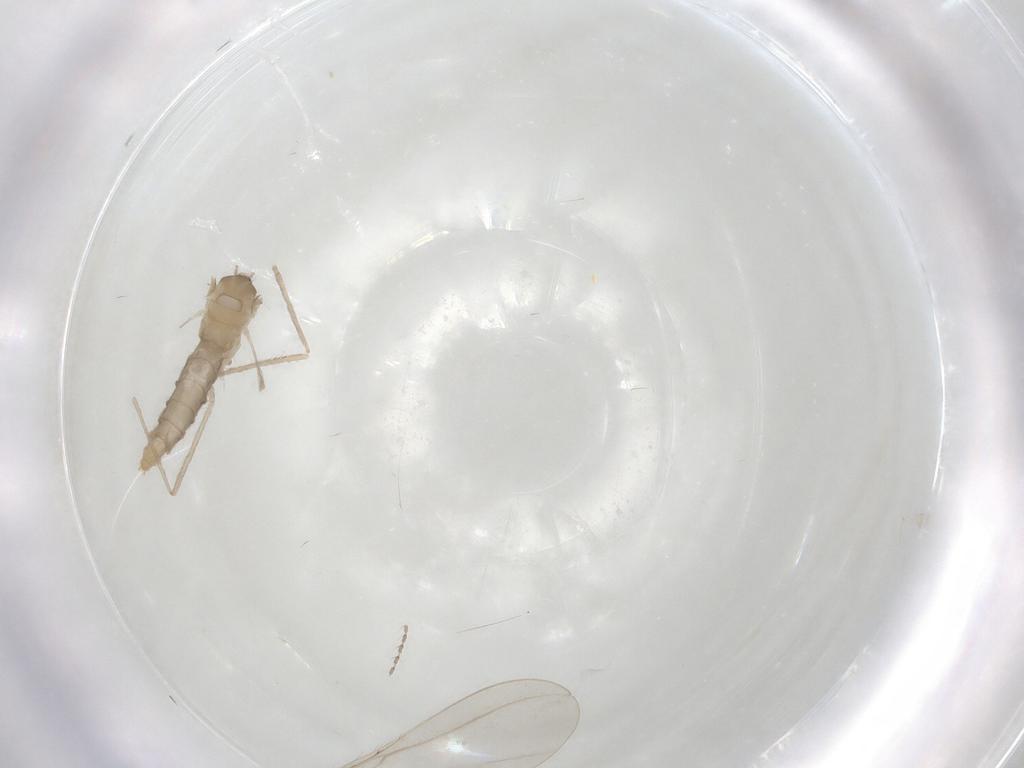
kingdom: Animalia
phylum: Arthropoda
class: Insecta
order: Diptera
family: Cecidomyiidae
